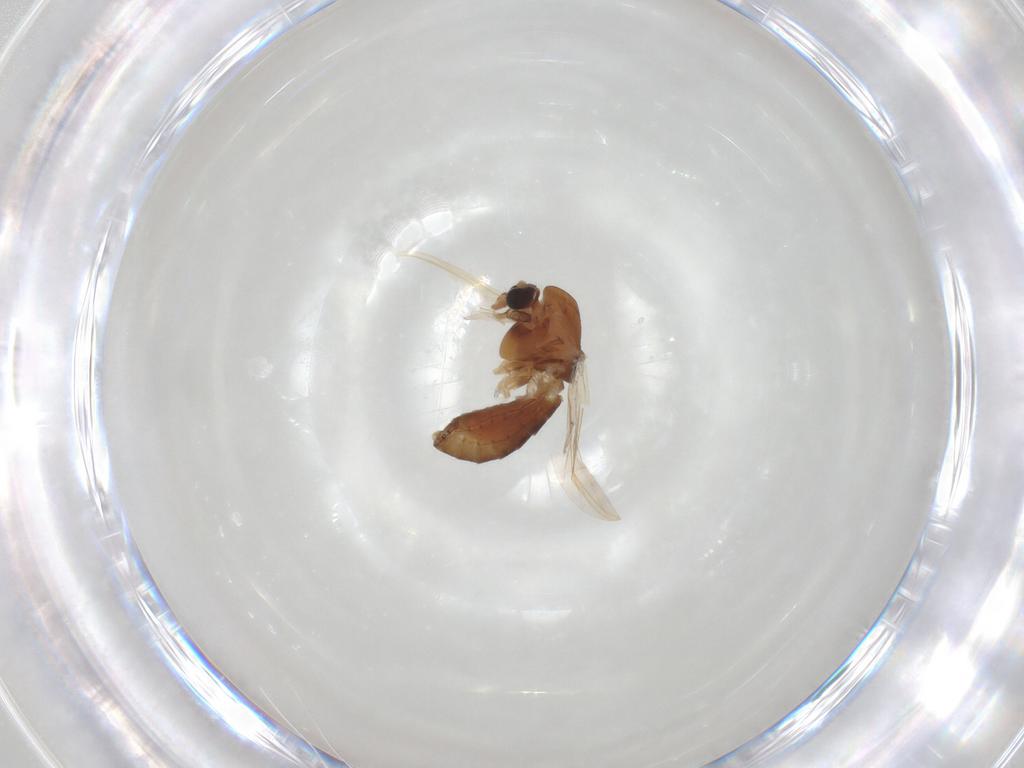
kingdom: Animalia
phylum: Arthropoda
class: Insecta
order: Diptera
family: Chironomidae
